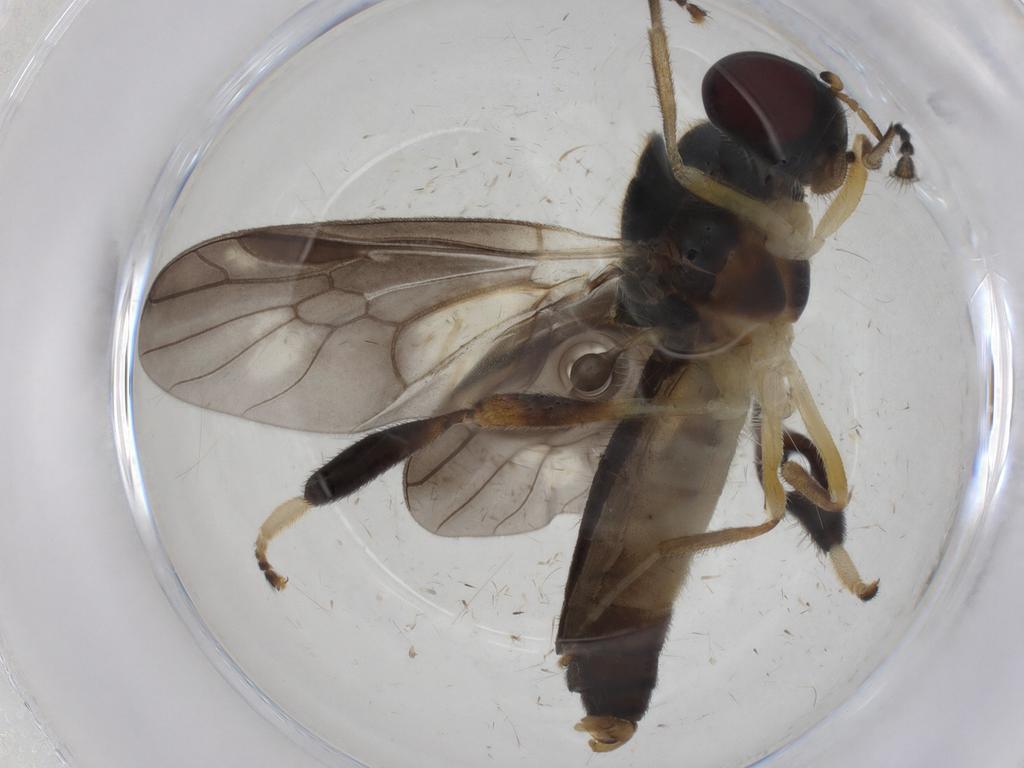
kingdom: Animalia
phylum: Arthropoda
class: Insecta
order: Diptera
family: Stratiomyidae
